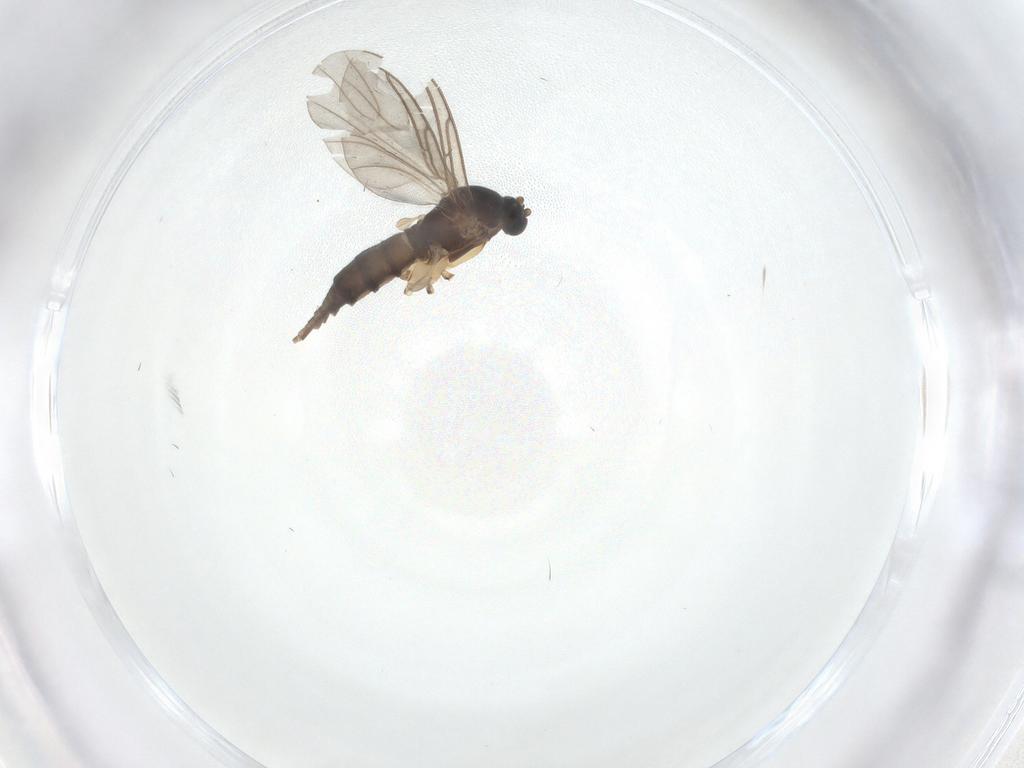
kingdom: Animalia
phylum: Arthropoda
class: Insecta
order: Diptera
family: Sciaridae
